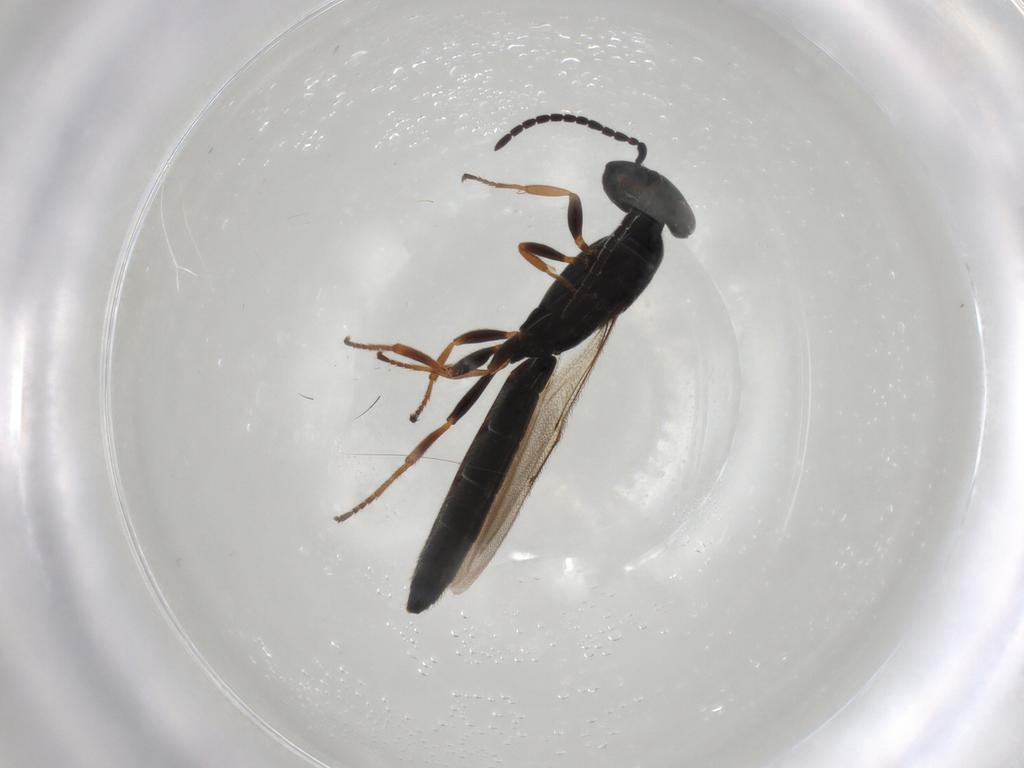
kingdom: Animalia
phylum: Arthropoda
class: Insecta
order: Hymenoptera
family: Scelionidae
